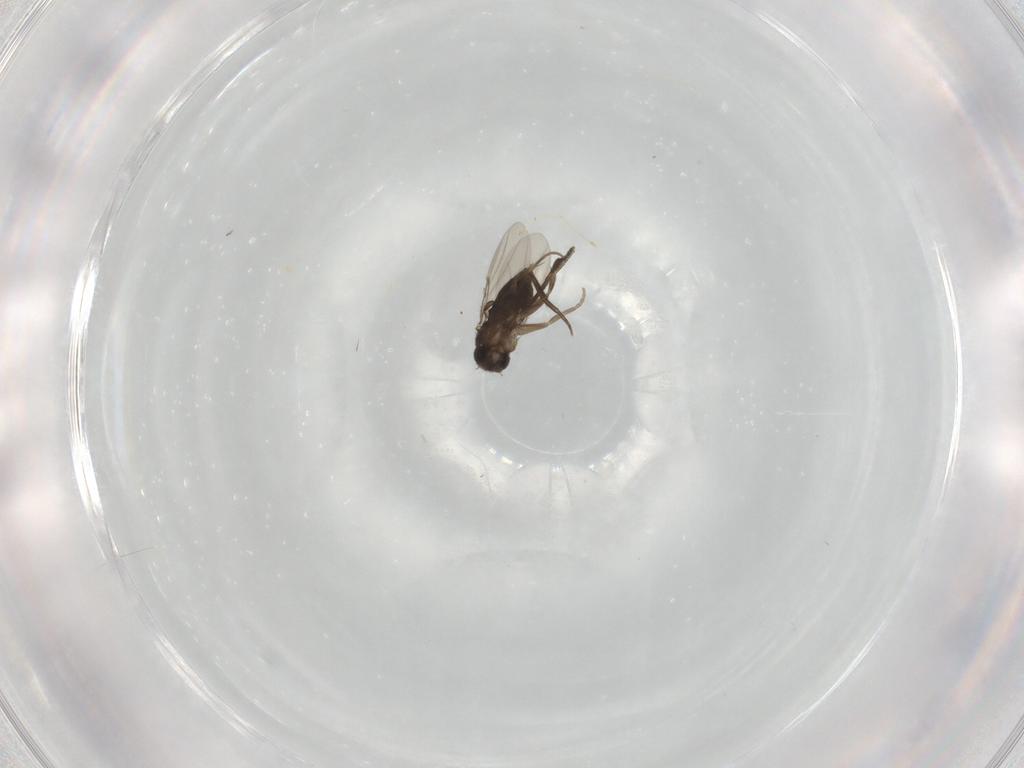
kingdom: Animalia
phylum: Arthropoda
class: Insecta
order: Diptera
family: Phoridae
